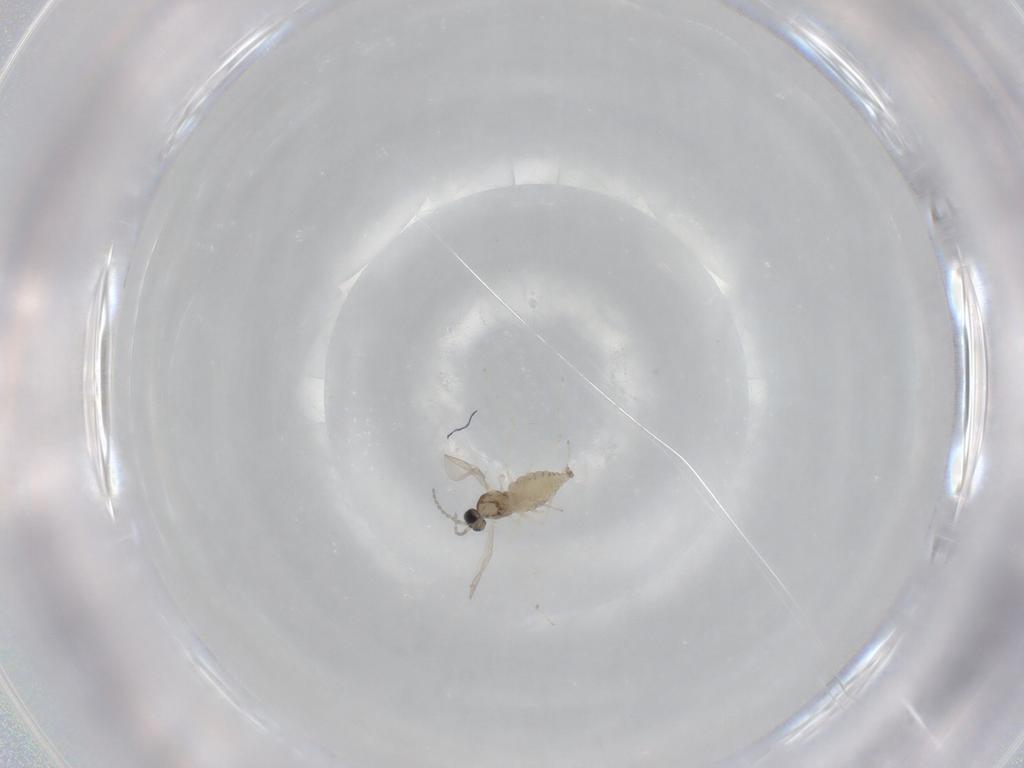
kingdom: Animalia
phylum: Arthropoda
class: Insecta
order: Diptera
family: Cecidomyiidae
